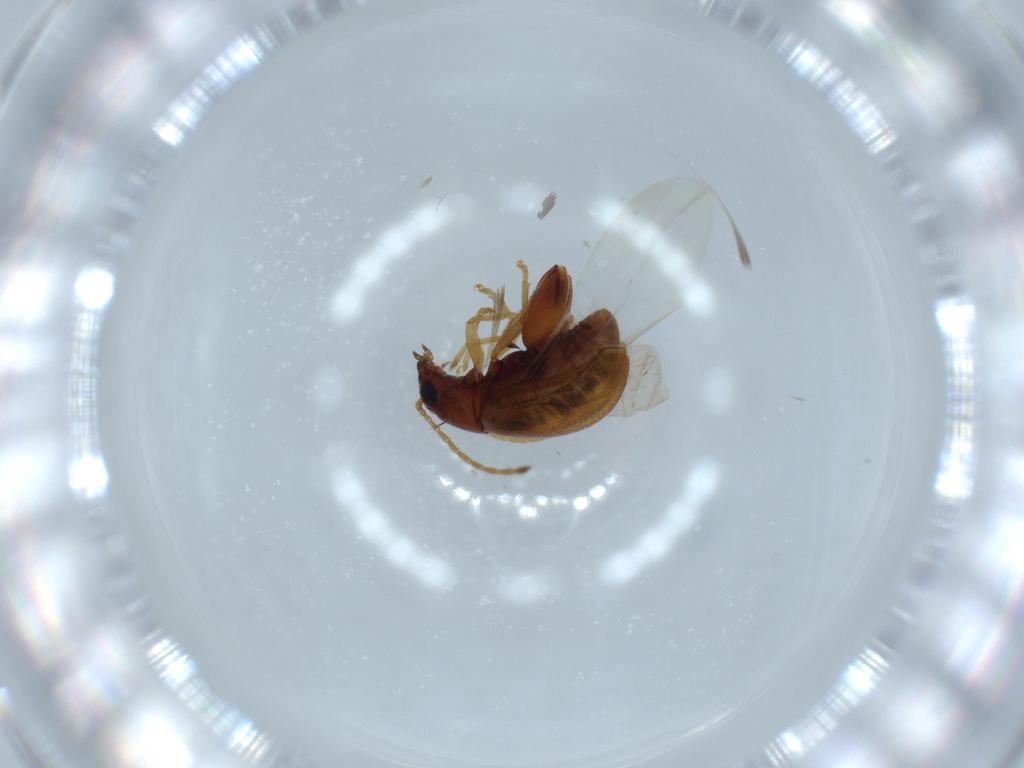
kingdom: Animalia
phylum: Arthropoda
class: Insecta
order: Coleoptera
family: Chrysomelidae
